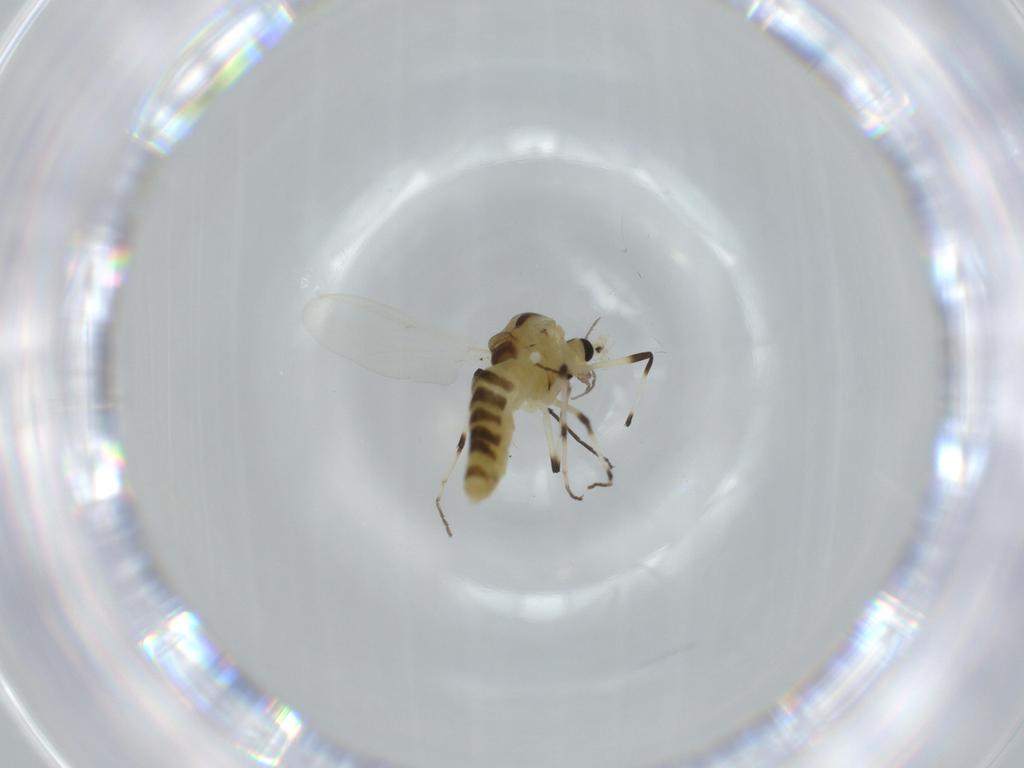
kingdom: Animalia
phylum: Arthropoda
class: Insecta
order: Diptera
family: Chironomidae
